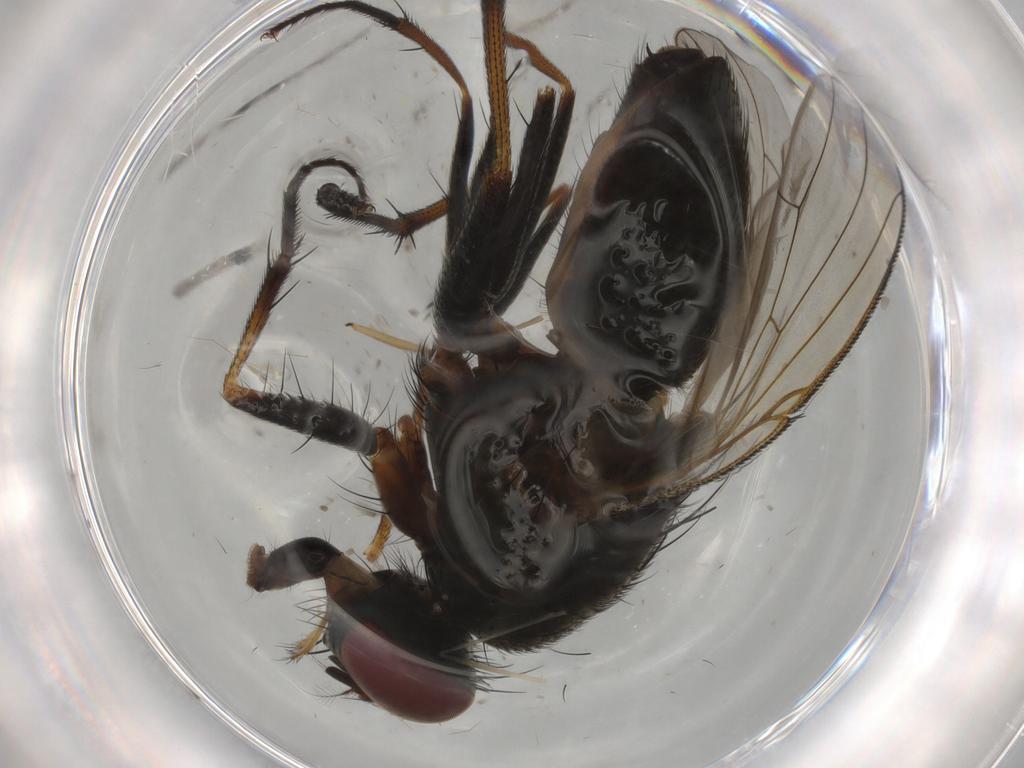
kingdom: Animalia
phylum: Arthropoda
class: Insecta
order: Diptera
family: Muscidae
